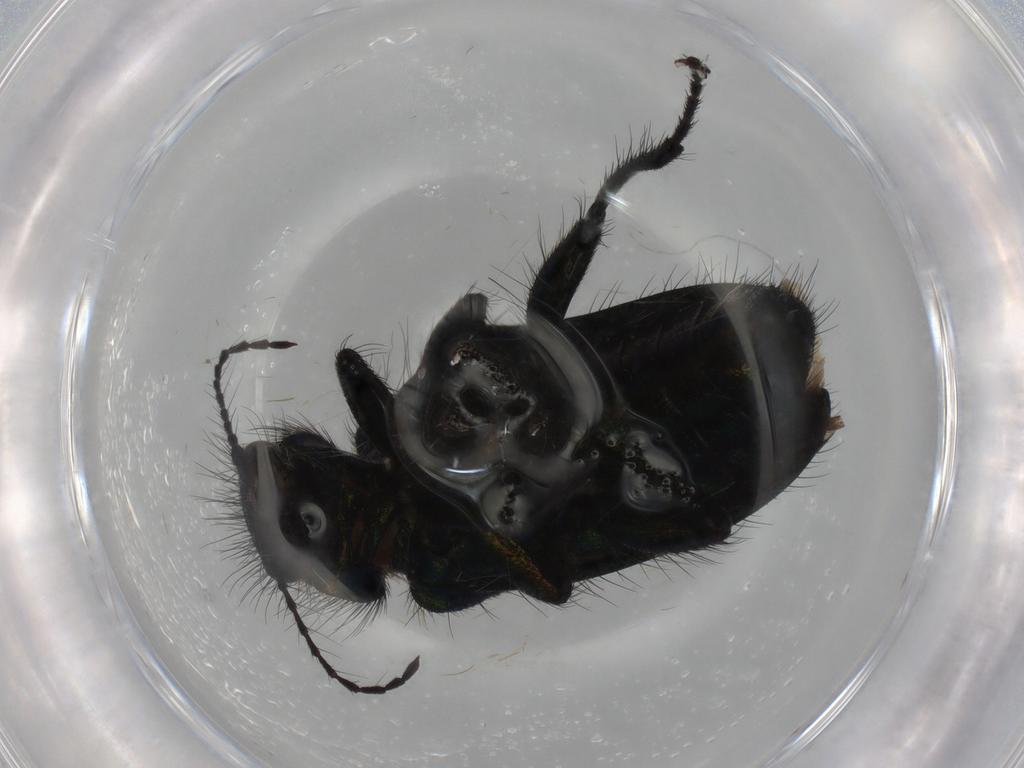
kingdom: Animalia
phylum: Arthropoda
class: Insecta
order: Coleoptera
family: Melyridae
